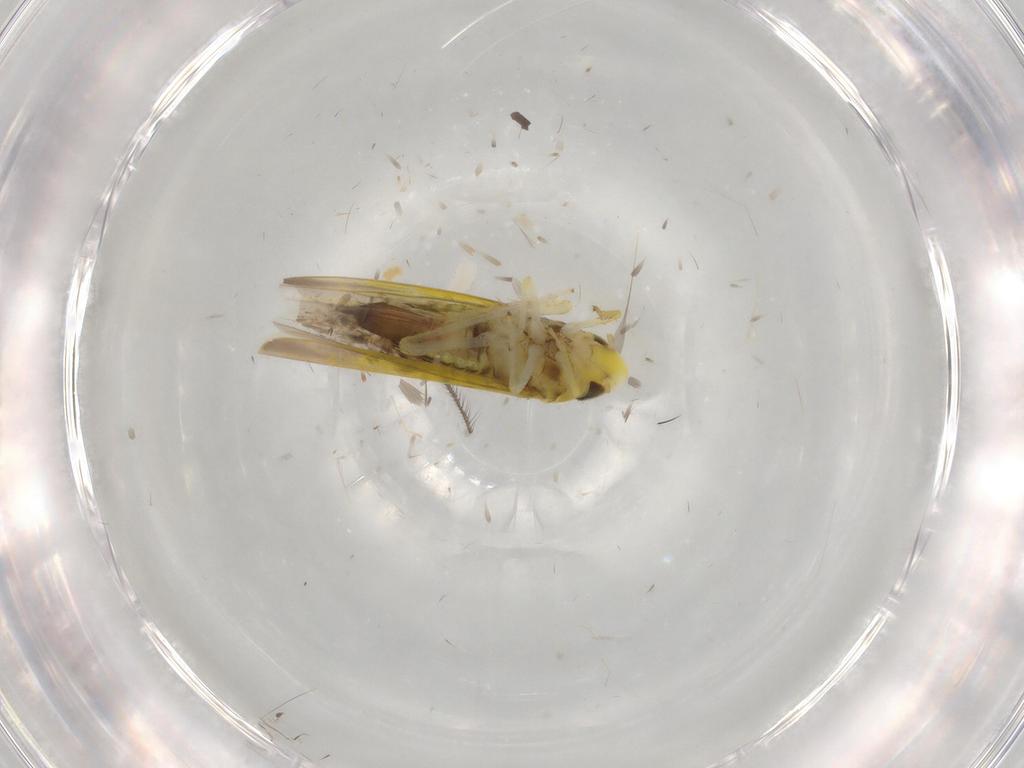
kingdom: Animalia
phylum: Arthropoda
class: Insecta
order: Hemiptera
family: Cicadellidae
